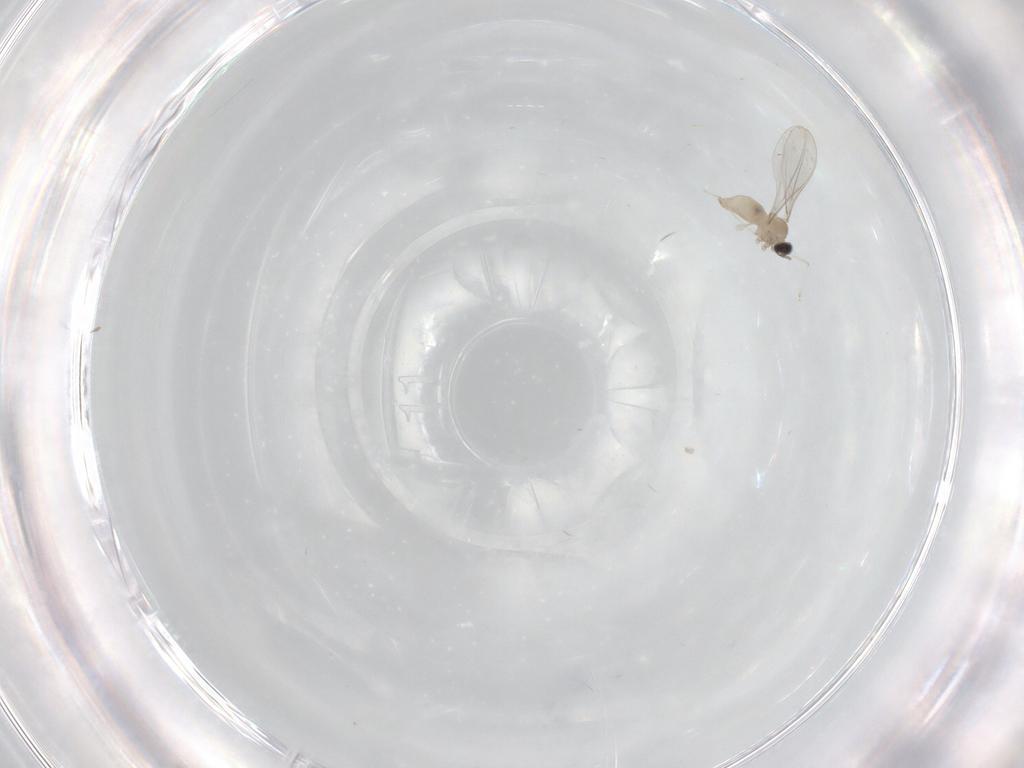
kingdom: Animalia
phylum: Arthropoda
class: Insecta
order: Diptera
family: Cecidomyiidae
